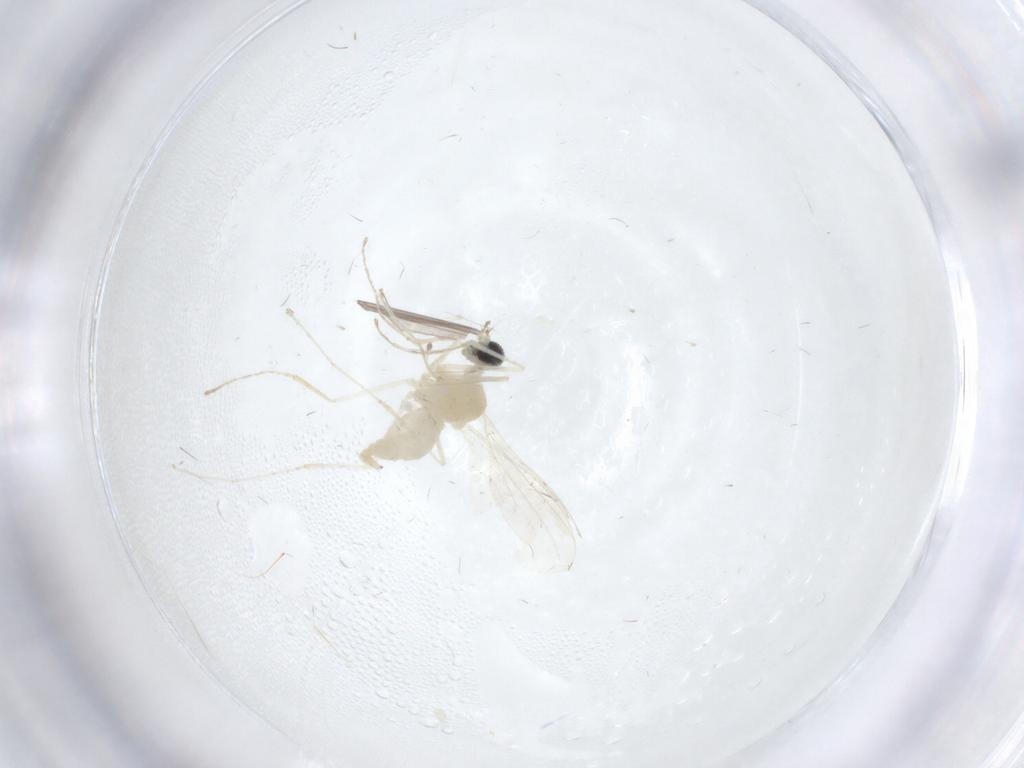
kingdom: Animalia
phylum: Arthropoda
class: Insecta
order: Diptera
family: Cecidomyiidae
